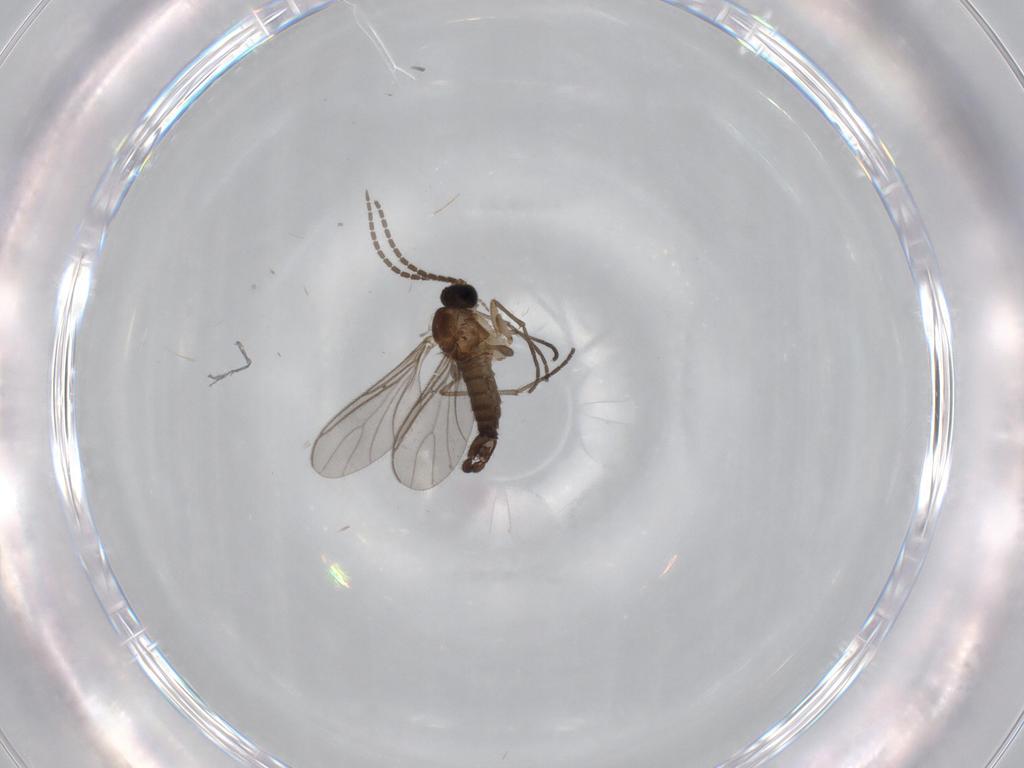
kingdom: Animalia
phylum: Arthropoda
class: Insecta
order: Diptera
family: Sciaridae
